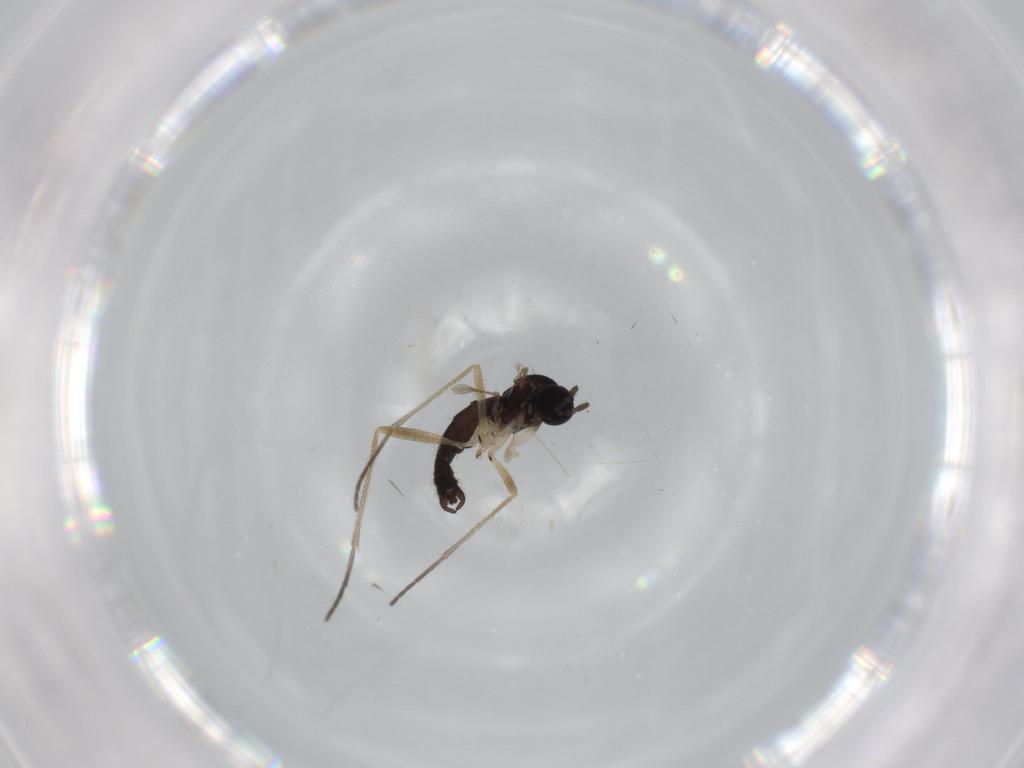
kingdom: Animalia
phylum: Arthropoda
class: Insecta
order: Diptera
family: Sciaridae
